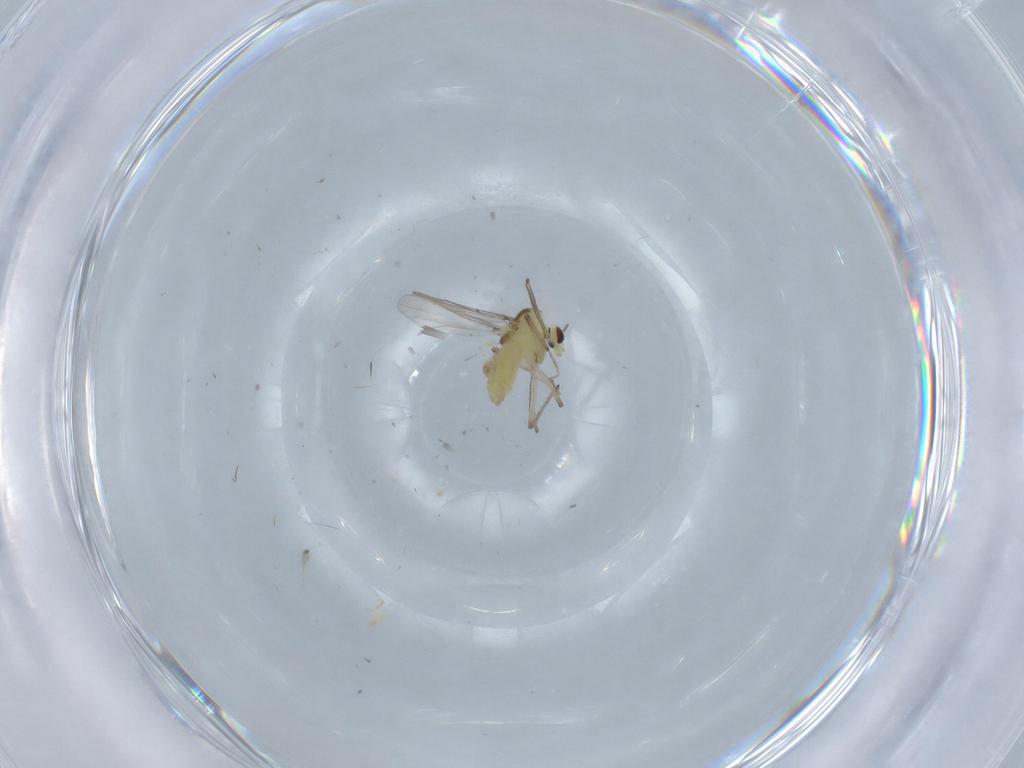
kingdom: Animalia
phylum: Arthropoda
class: Insecta
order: Diptera
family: Chironomidae
